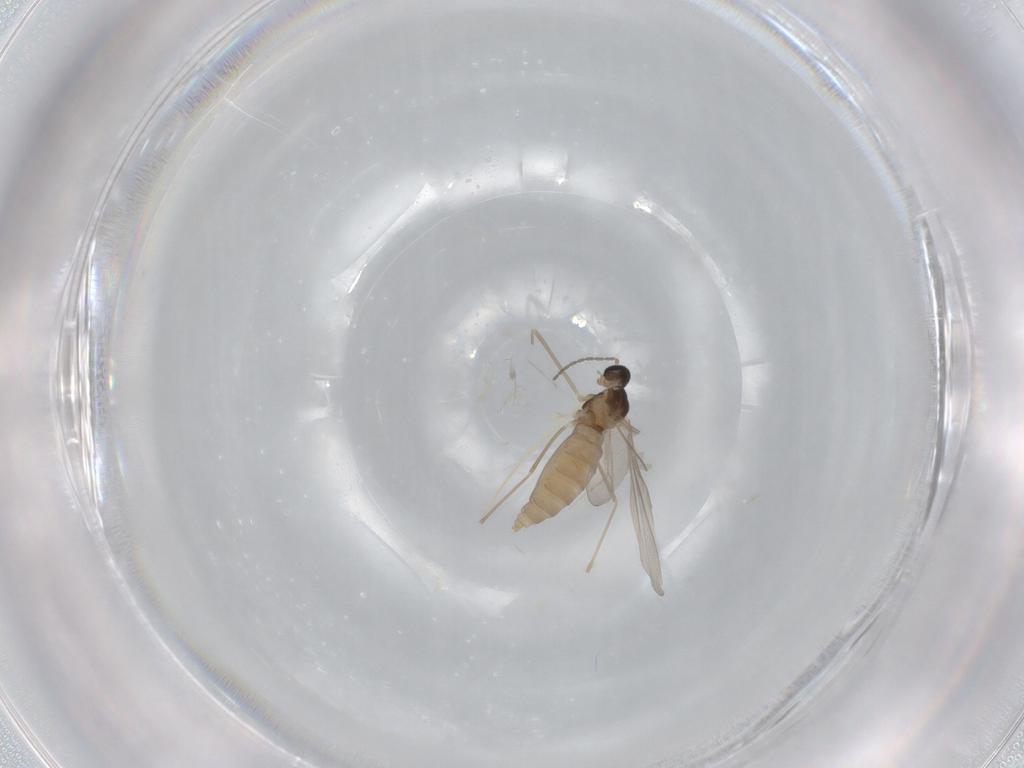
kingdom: Animalia
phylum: Arthropoda
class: Insecta
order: Diptera
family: Cecidomyiidae
